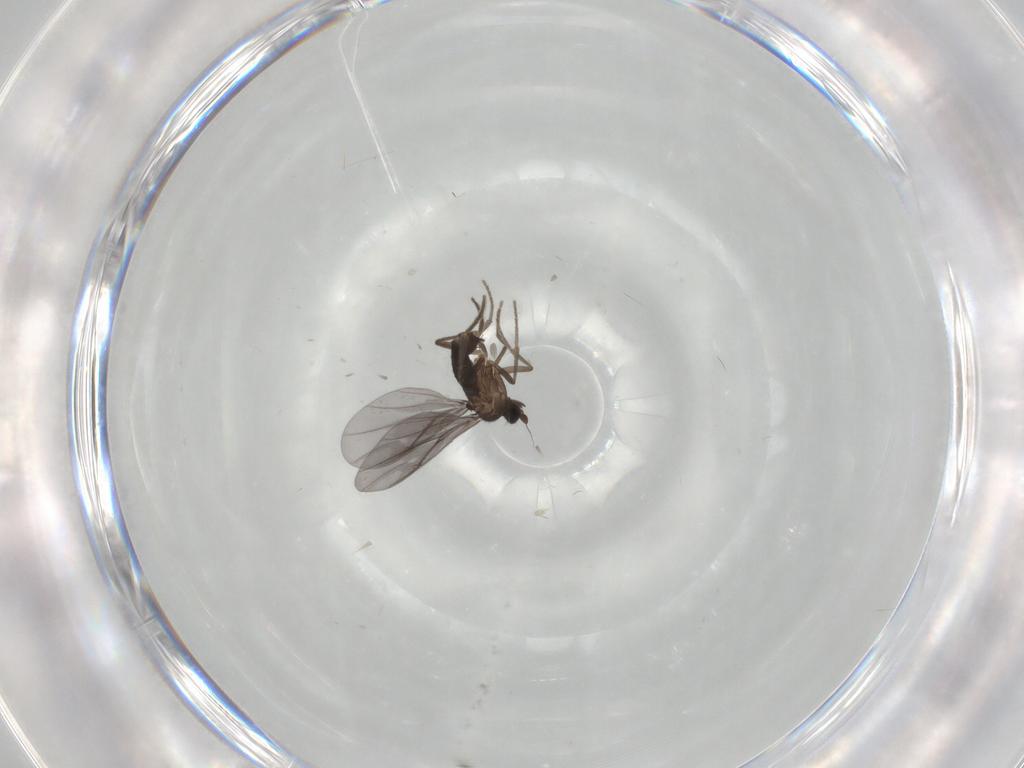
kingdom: Animalia
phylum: Arthropoda
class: Insecta
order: Diptera
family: Phoridae
